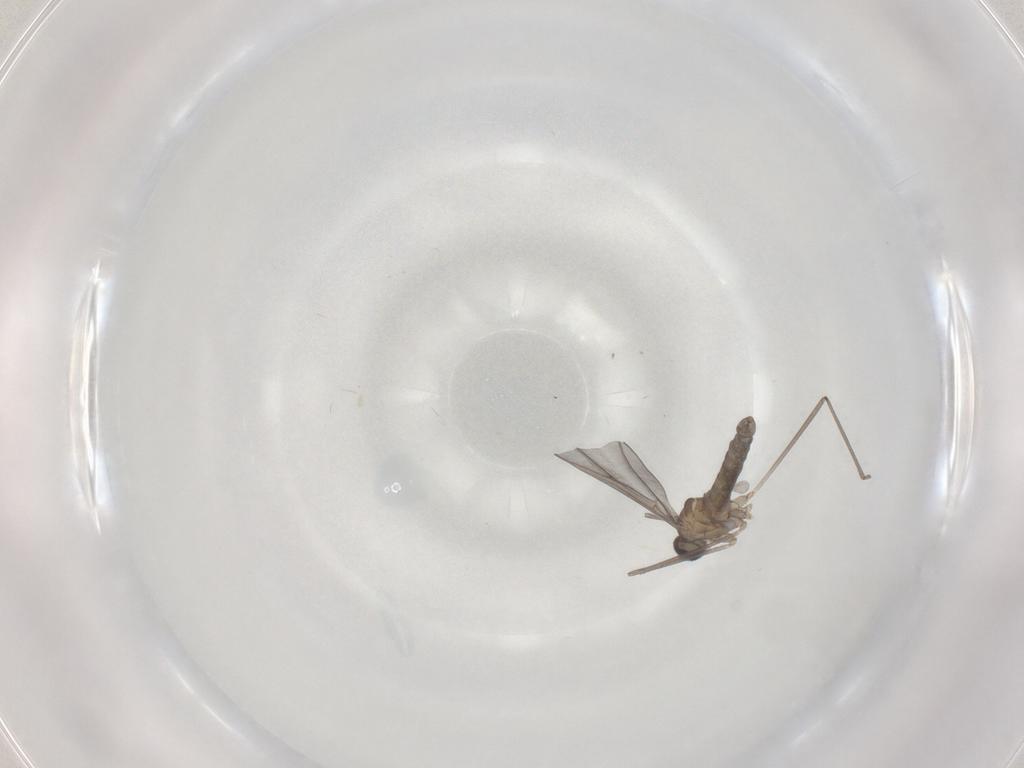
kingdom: Animalia
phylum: Arthropoda
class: Insecta
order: Diptera
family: Cecidomyiidae
